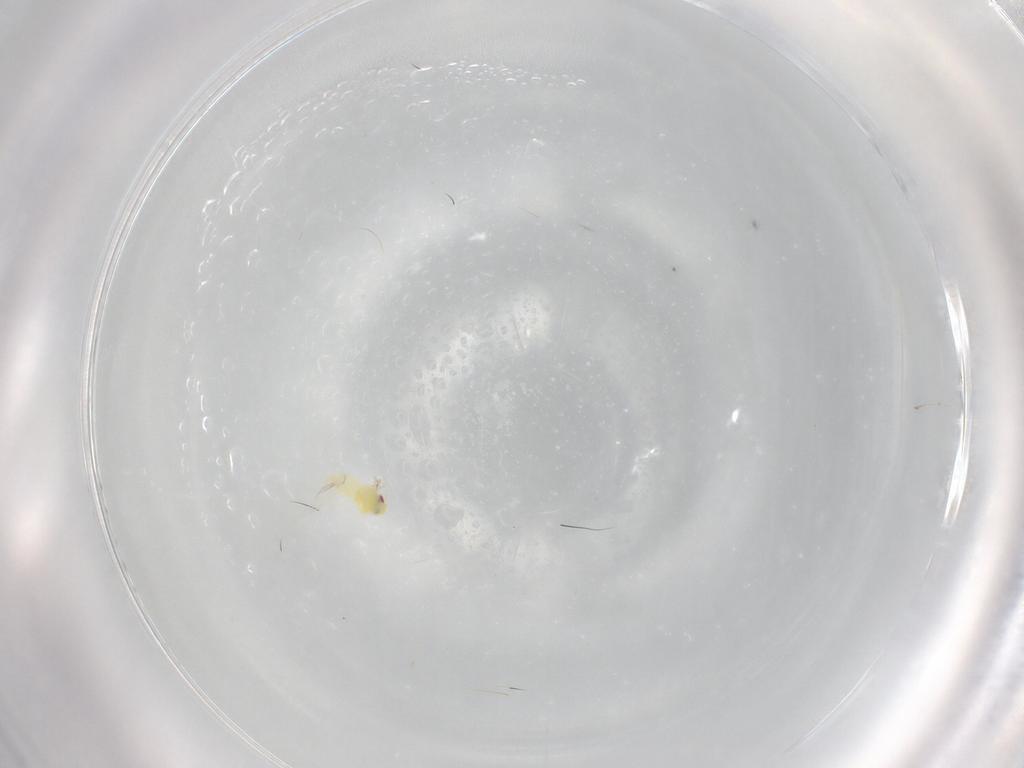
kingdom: Animalia
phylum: Arthropoda
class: Insecta
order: Hemiptera
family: Aleyrodidae
